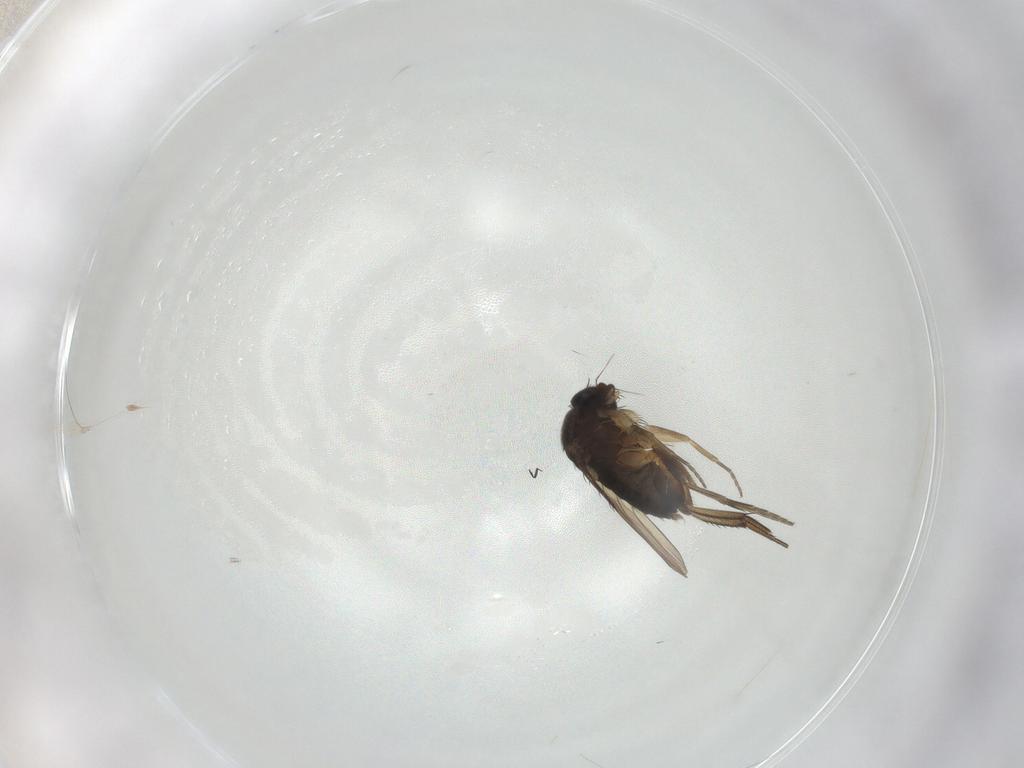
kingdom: Animalia
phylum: Arthropoda
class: Insecta
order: Diptera
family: Phoridae
